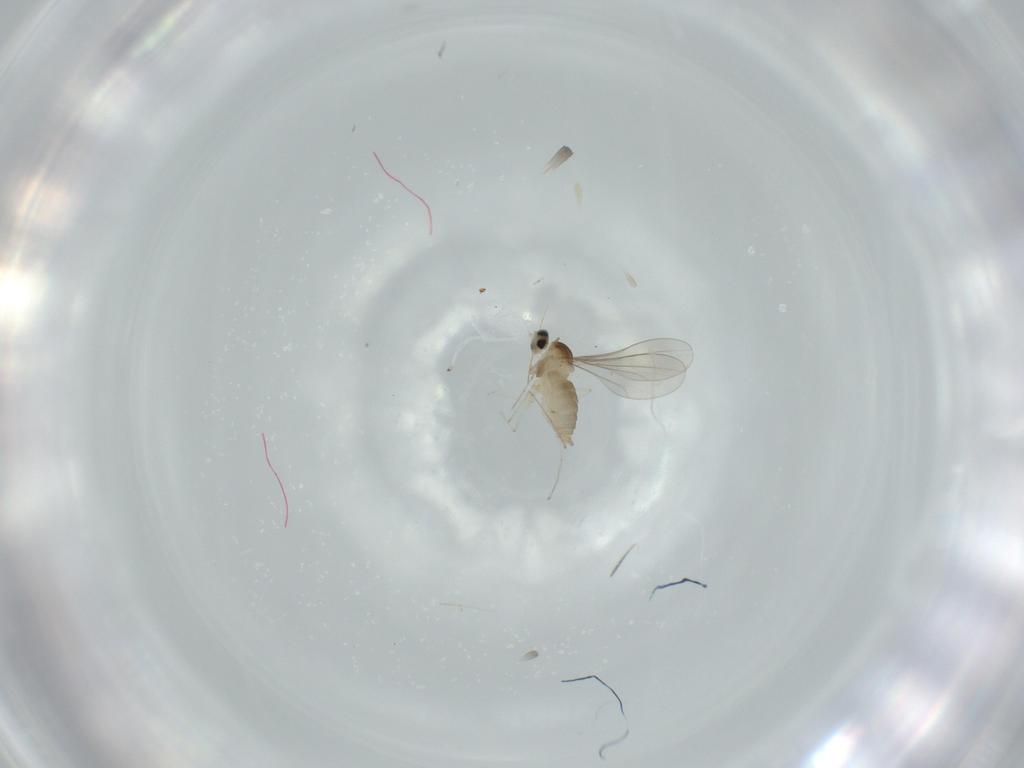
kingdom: Animalia
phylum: Arthropoda
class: Insecta
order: Diptera
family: Cecidomyiidae
